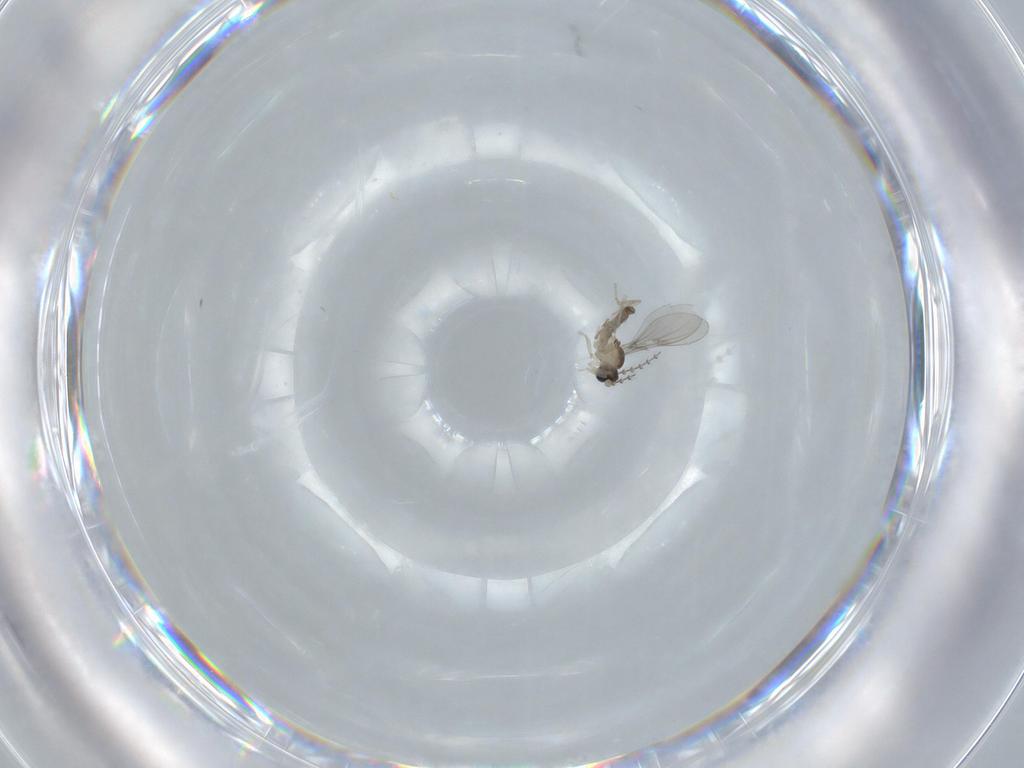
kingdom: Animalia
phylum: Arthropoda
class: Insecta
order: Diptera
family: Cecidomyiidae
